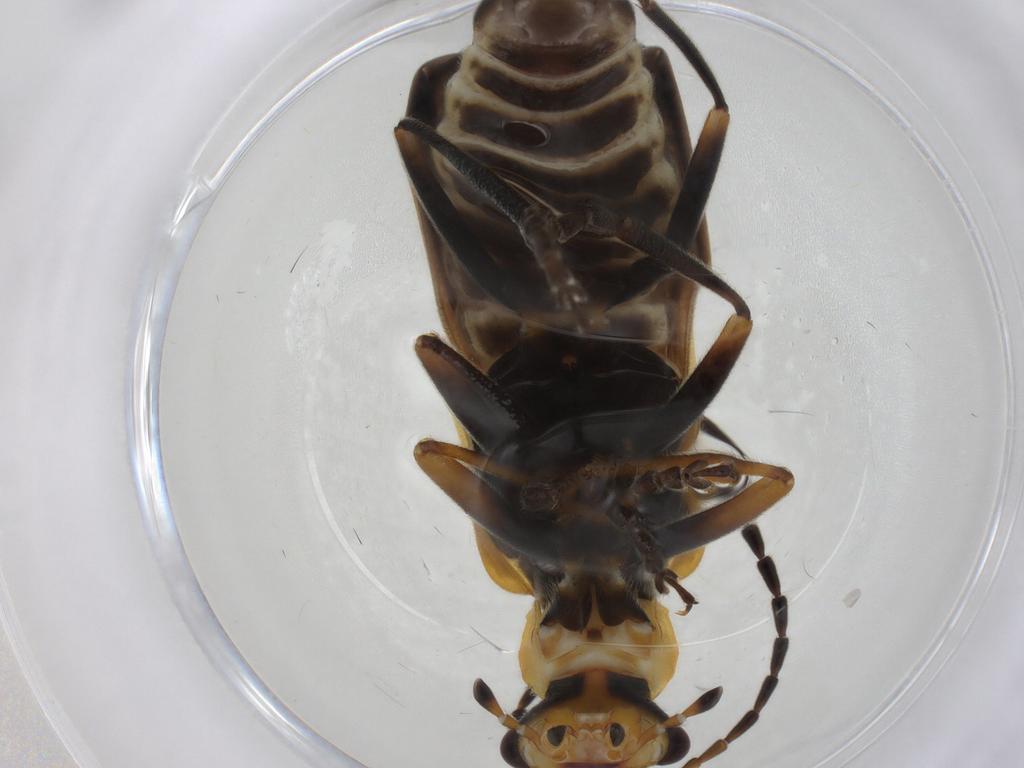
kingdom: Animalia
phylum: Arthropoda
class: Insecta
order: Coleoptera
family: Cantharidae
